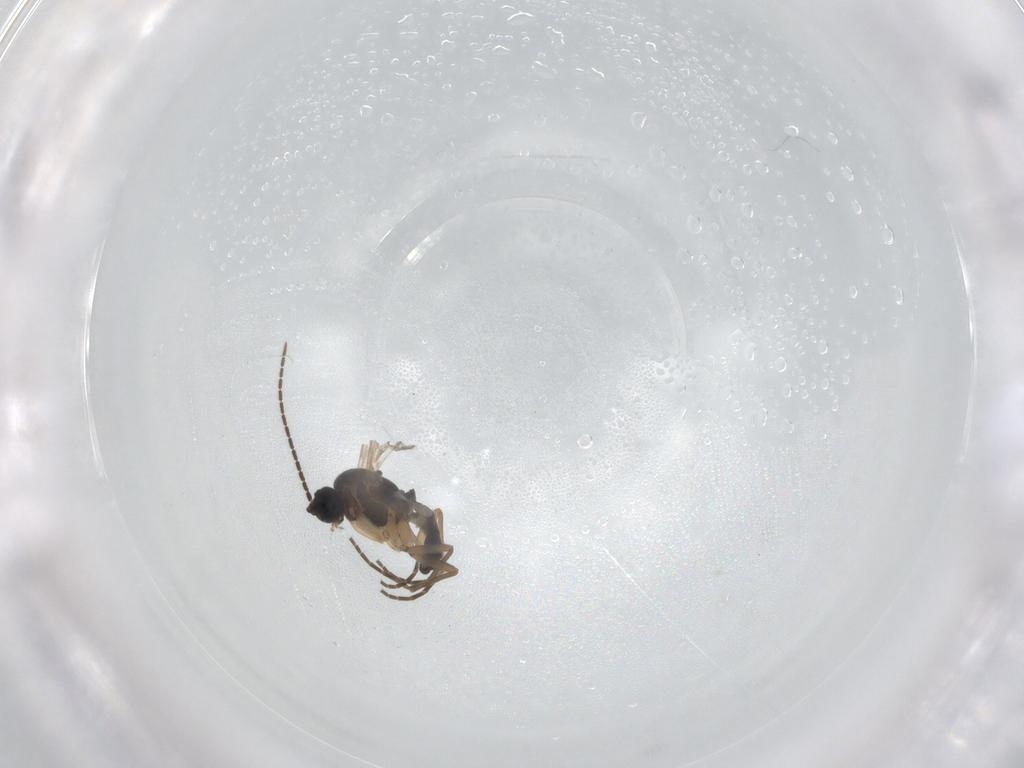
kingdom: Animalia
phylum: Arthropoda
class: Insecta
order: Diptera
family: Sciaridae
